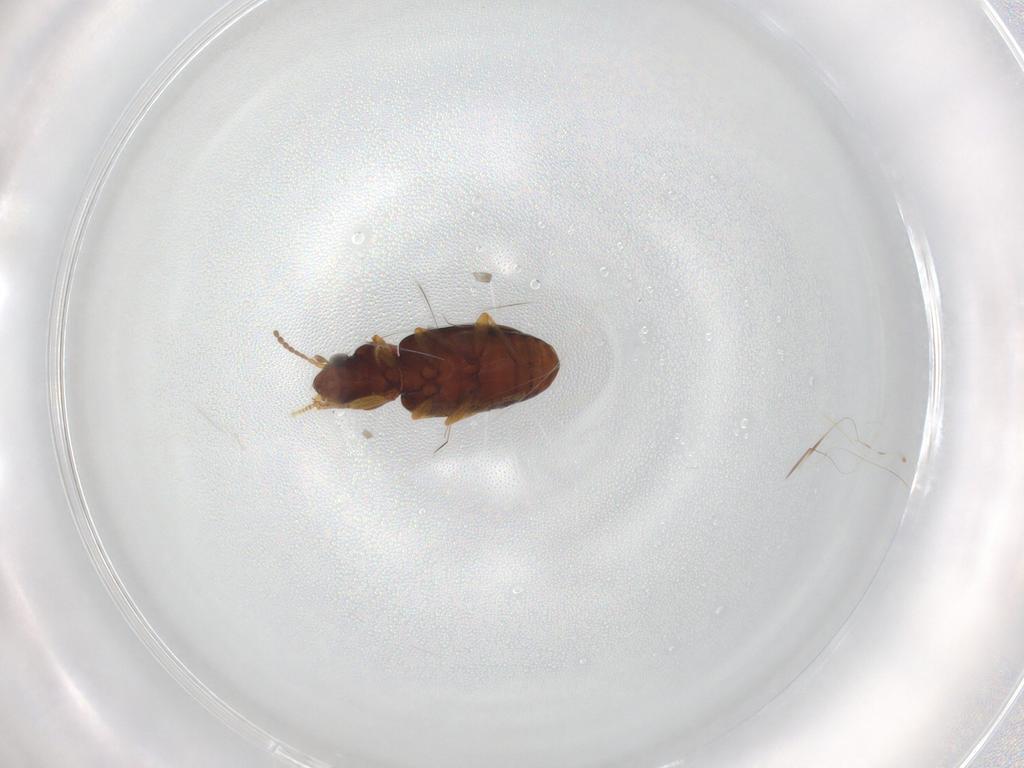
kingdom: Animalia
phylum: Arthropoda
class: Insecta
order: Coleoptera
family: Carabidae
